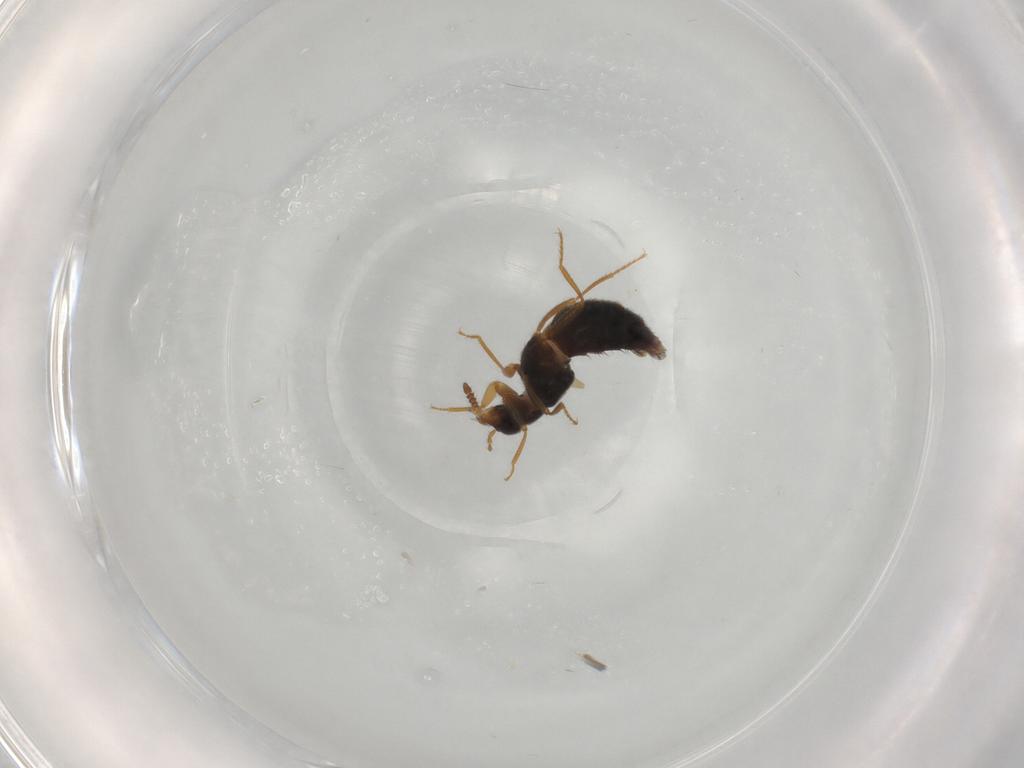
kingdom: Animalia
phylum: Arthropoda
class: Insecta
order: Coleoptera
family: Staphylinidae
